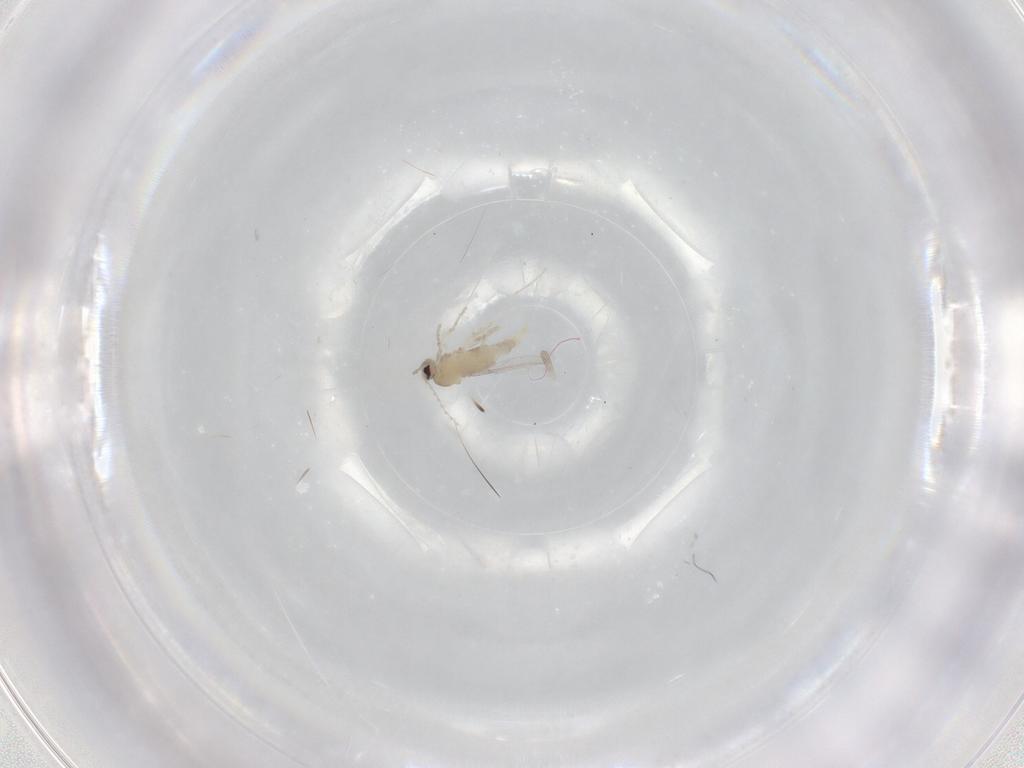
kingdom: Animalia
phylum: Arthropoda
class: Insecta
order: Diptera
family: Cecidomyiidae
